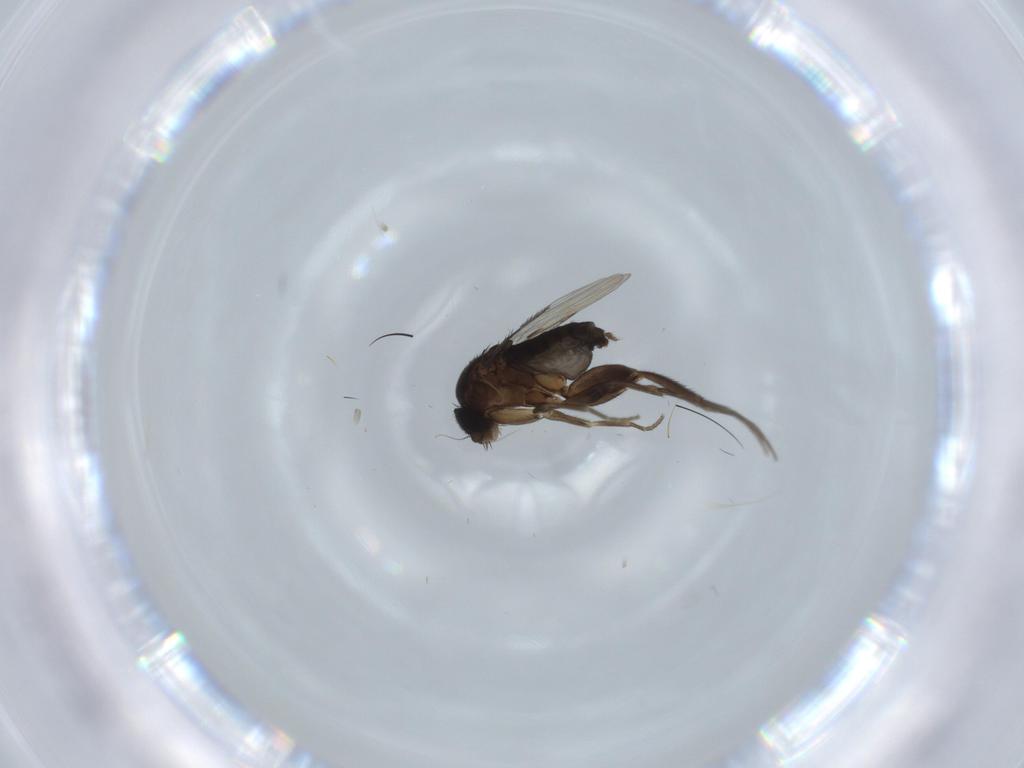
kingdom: Animalia
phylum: Arthropoda
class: Insecta
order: Diptera
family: Phoridae
